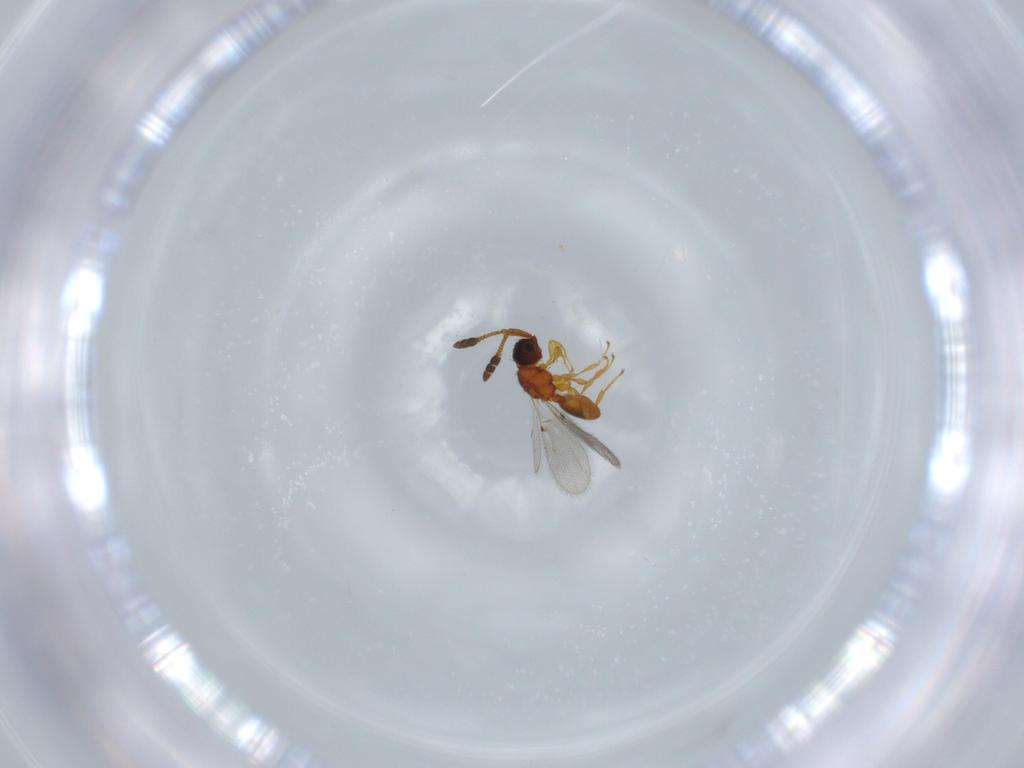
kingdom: Animalia
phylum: Arthropoda
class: Insecta
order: Hymenoptera
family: Diapriidae
